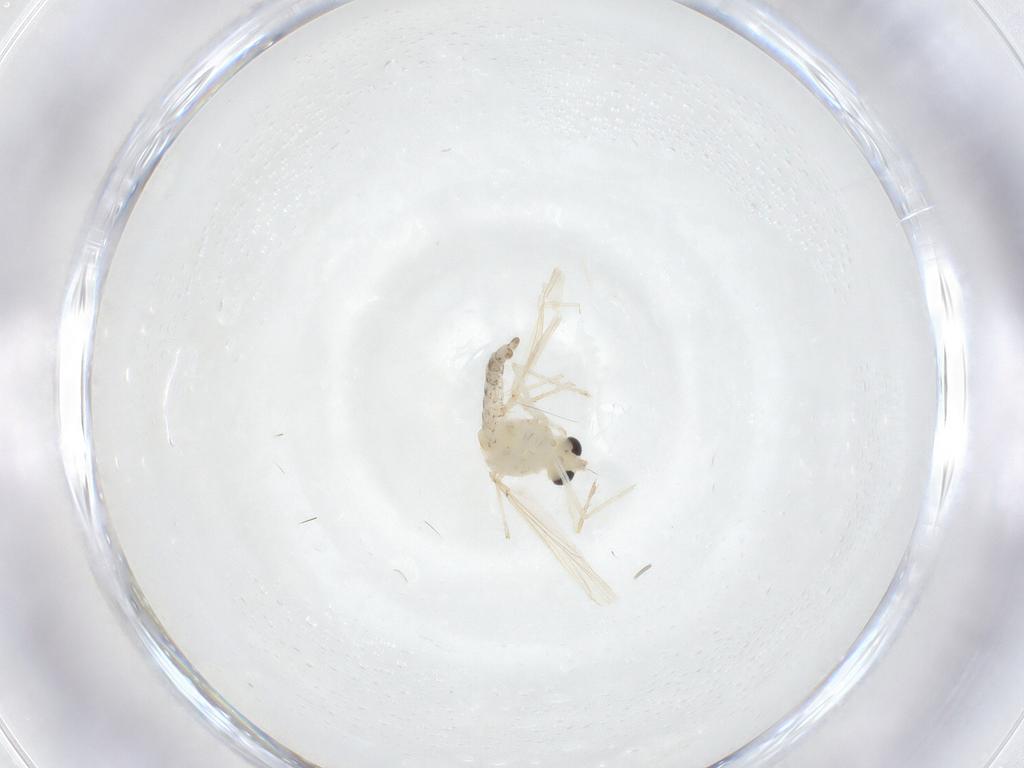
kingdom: Animalia
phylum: Arthropoda
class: Insecta
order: Diptera
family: Chironomidae
